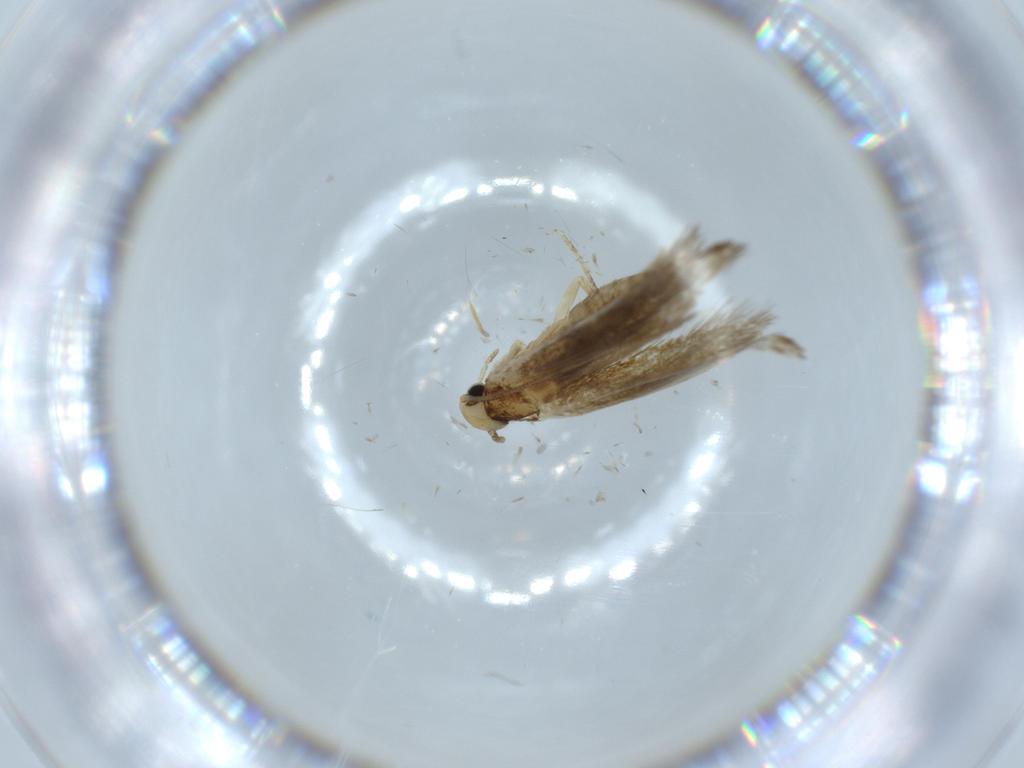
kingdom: Animalia
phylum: Arthropoda
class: Insecta
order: Lepidoptera
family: Tineidae
